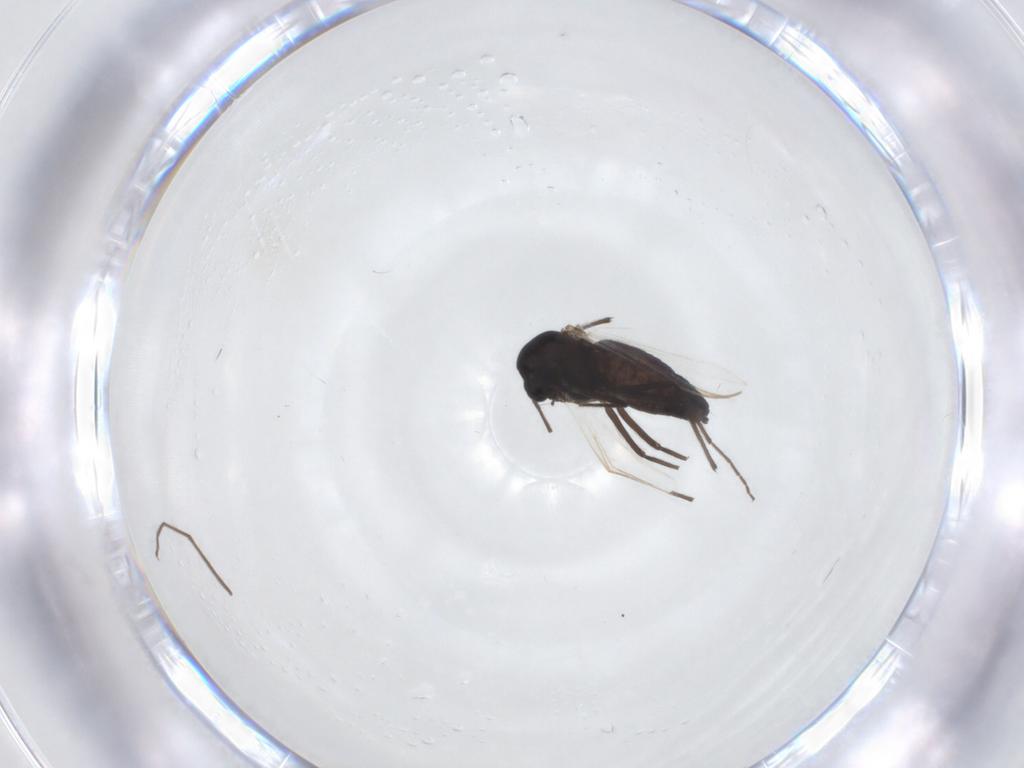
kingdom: Animalia
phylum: Arthropoda
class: Insecta
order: Diptera
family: Chironomidae
